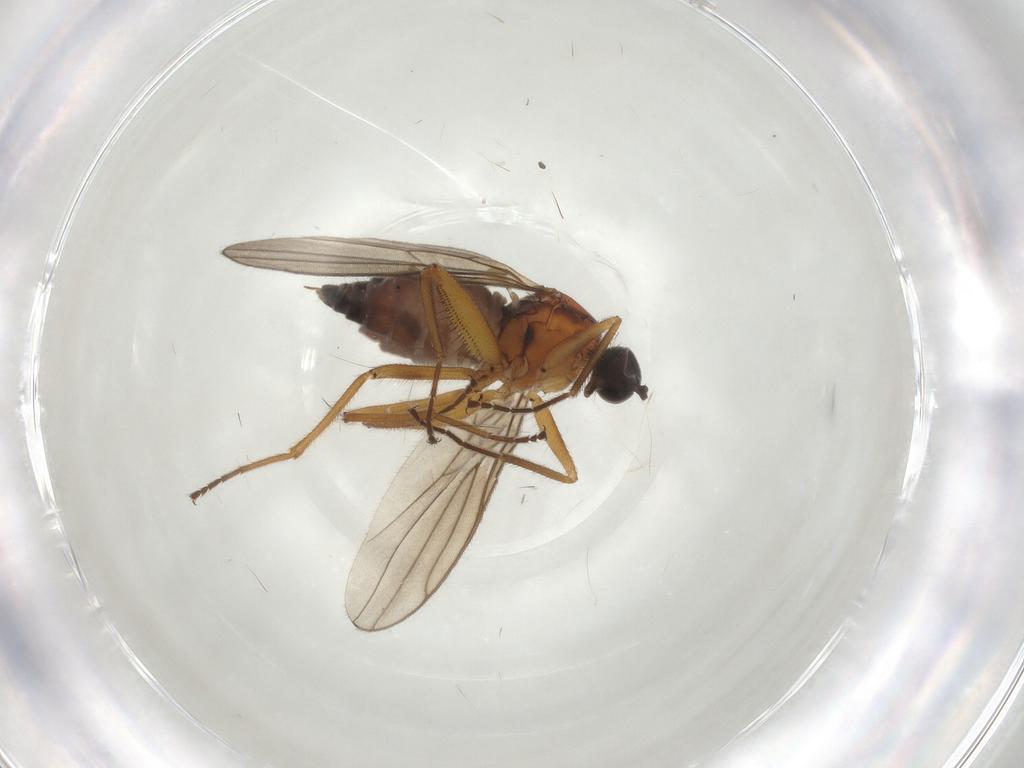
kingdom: Animalia
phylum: Arthropoda
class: Insecta
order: Diptera
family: Hybotidae
